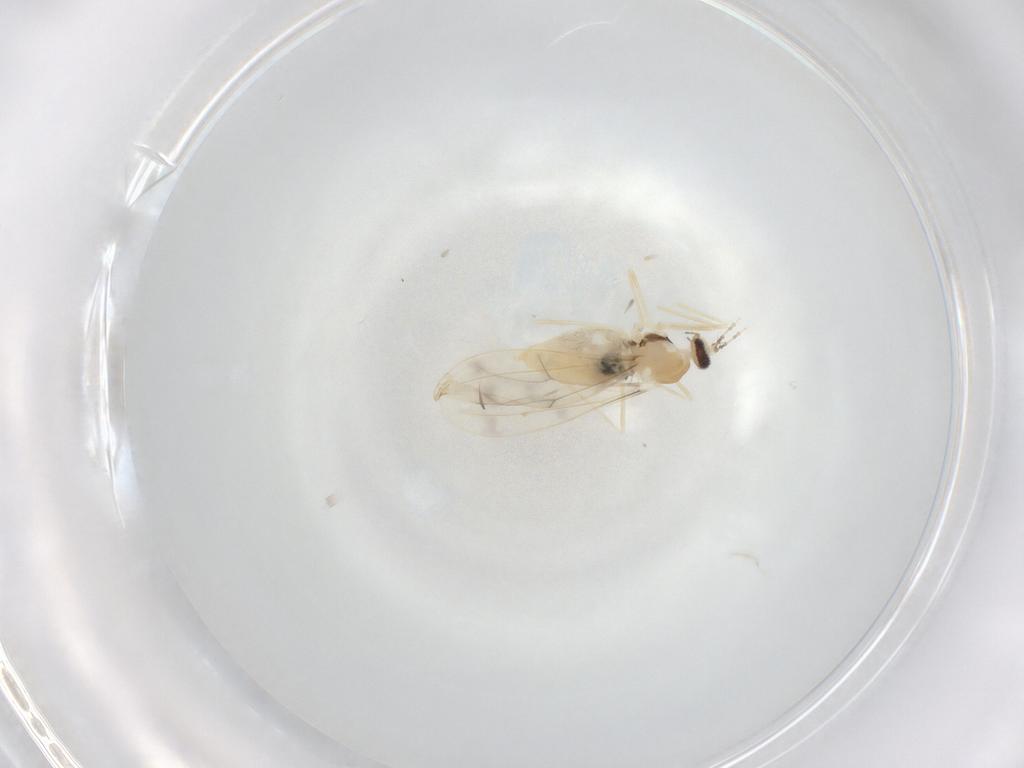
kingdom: Animalia
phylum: Arthropoda
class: Insecta
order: Diptera
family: Cecidomyiidae
